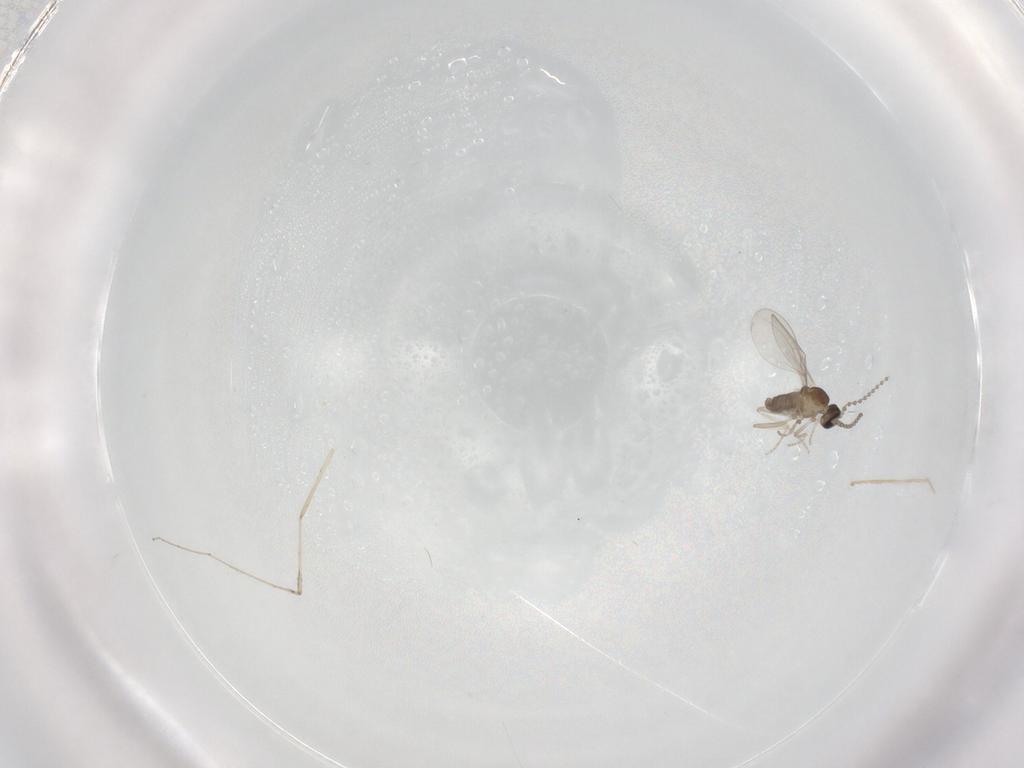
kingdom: Animalia
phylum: Arthropoda
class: Insecta
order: Diptera
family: Cecidomyiidae
